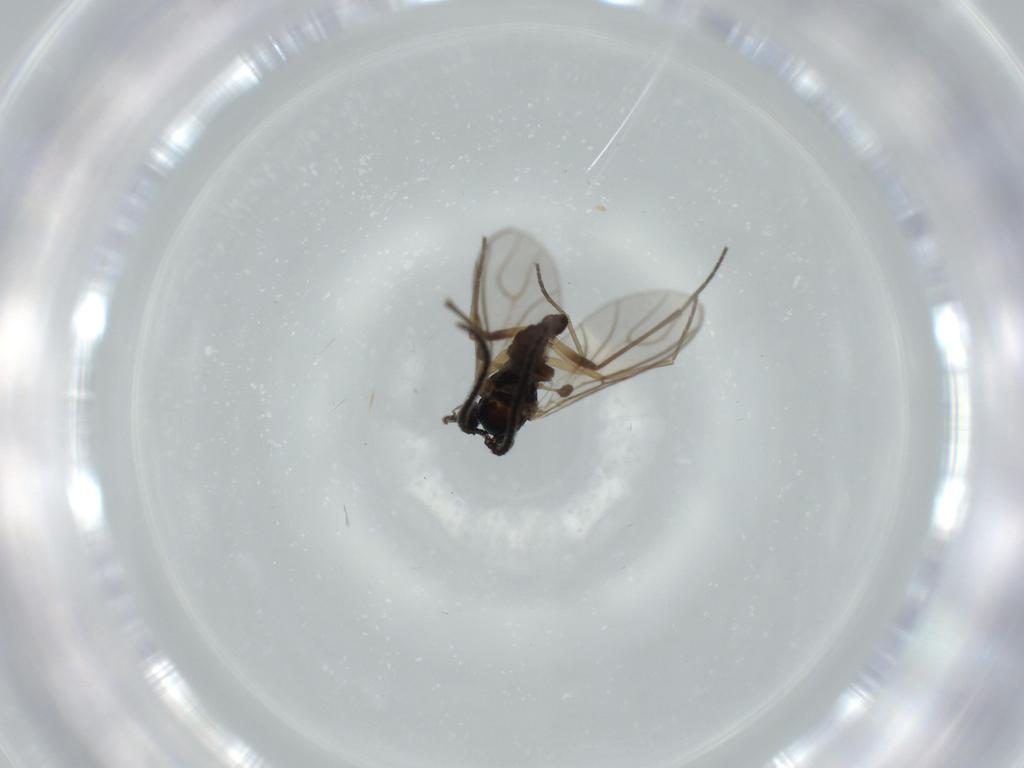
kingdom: Animalia
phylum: Arthropoda
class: Insecta
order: Diptera
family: Sciaridae
